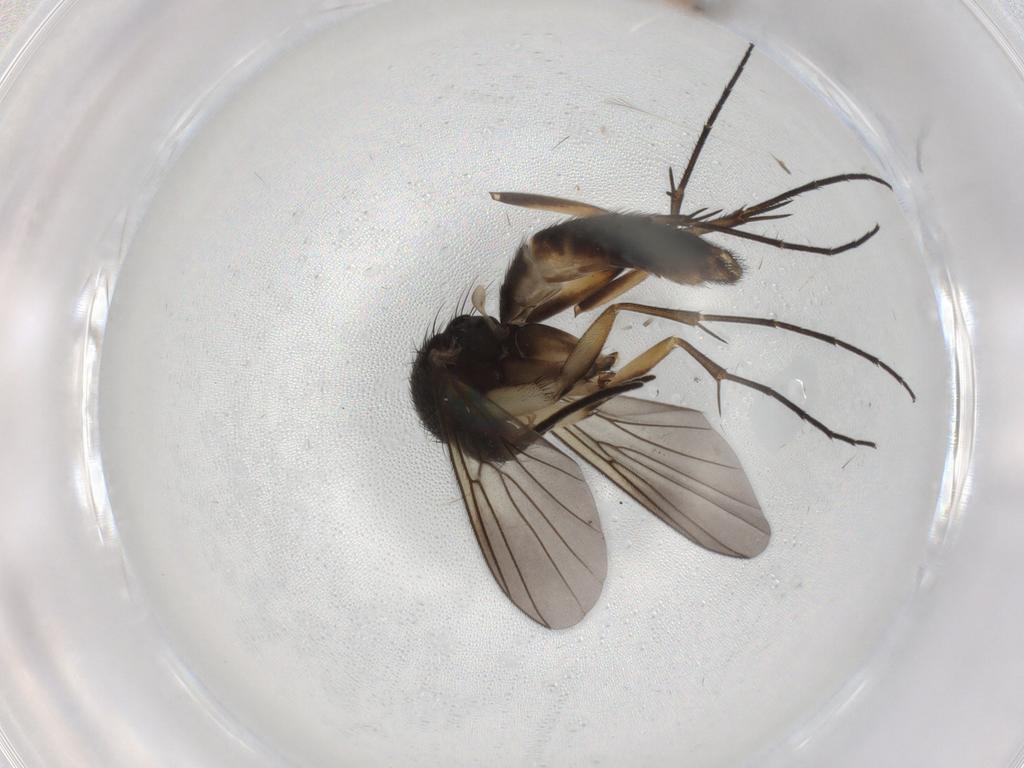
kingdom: Animalia
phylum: Arthropoda
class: Insecta
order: Diptera
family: Mycetophilidae
